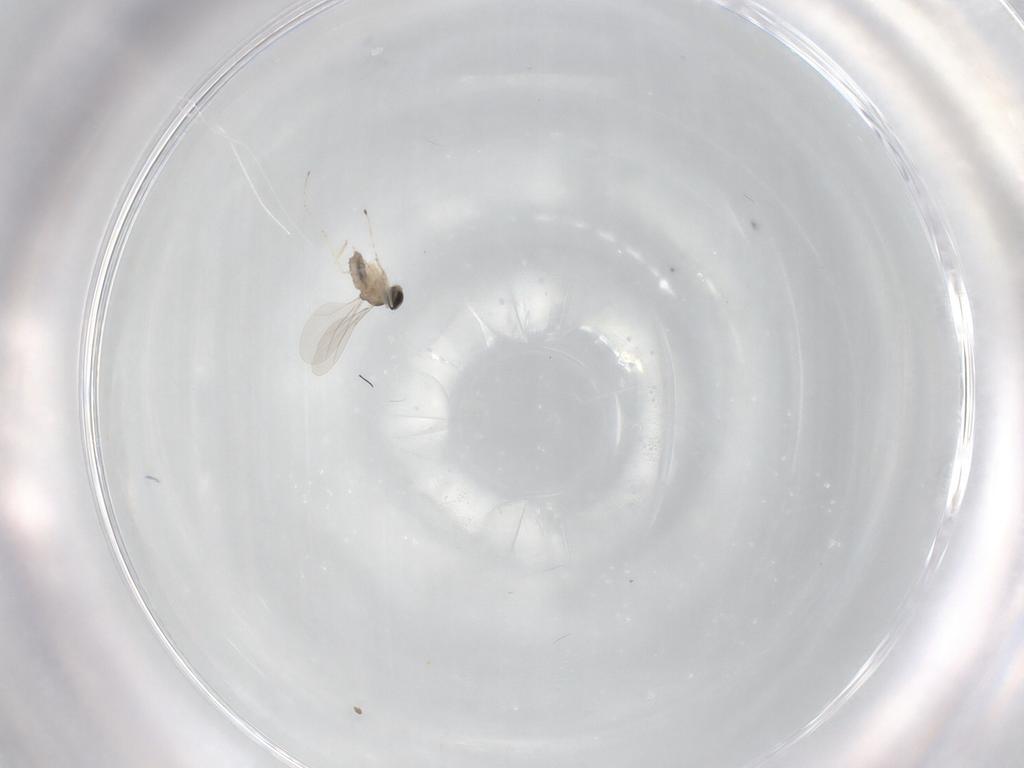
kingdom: Animalia
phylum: Arthropoda
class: Insecta
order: Diptera
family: Cecidomyiidae
